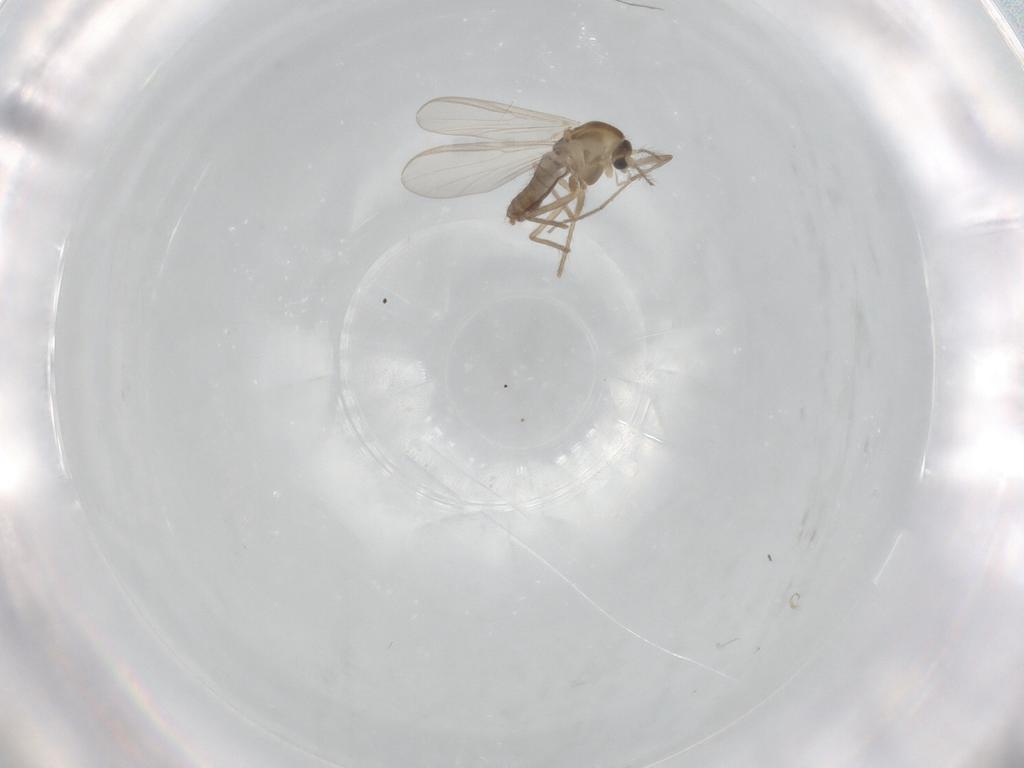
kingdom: Animalia
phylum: Arthropoda
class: Insecta
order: Diptera
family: Chironomidae
